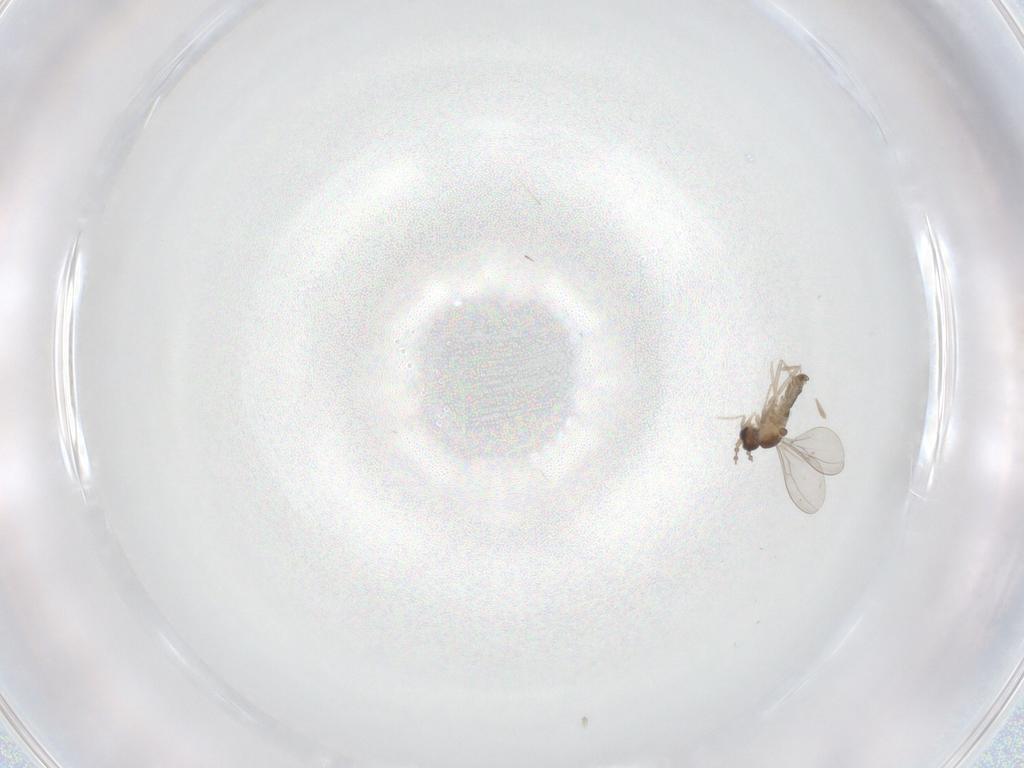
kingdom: Animalia
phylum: Arthropoda
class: Insecta
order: Diptera
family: Cecidomyiidae
